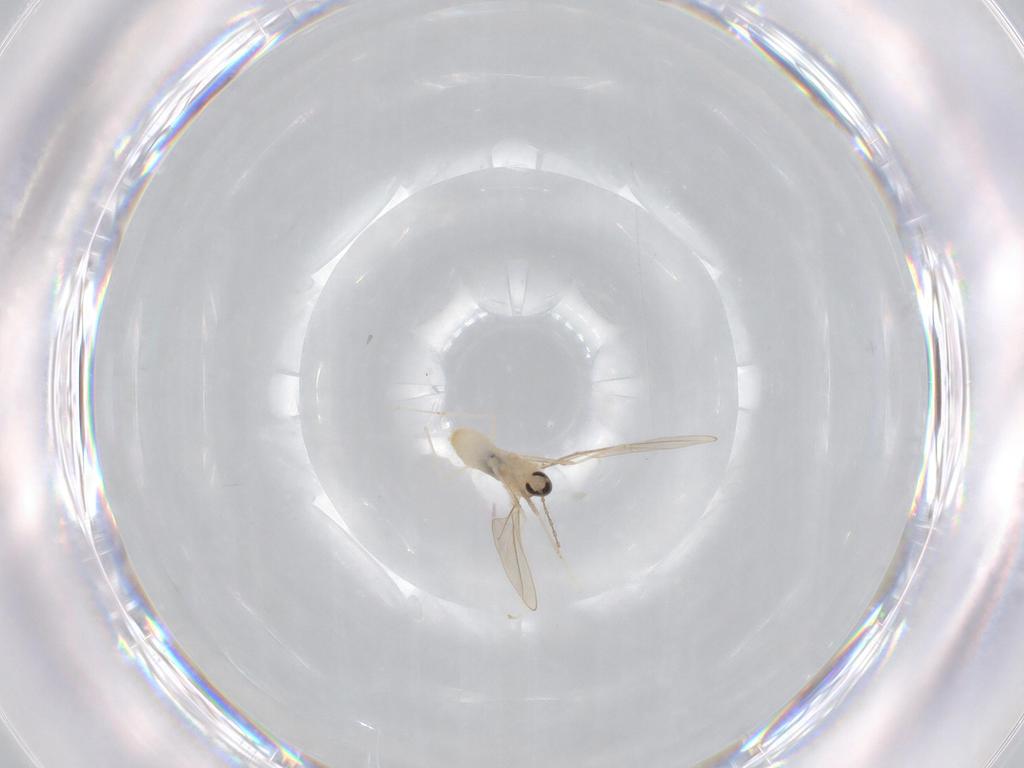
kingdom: Animalia
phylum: Arthropoda
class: Insecta
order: Diptera
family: Cecidomyiidae
